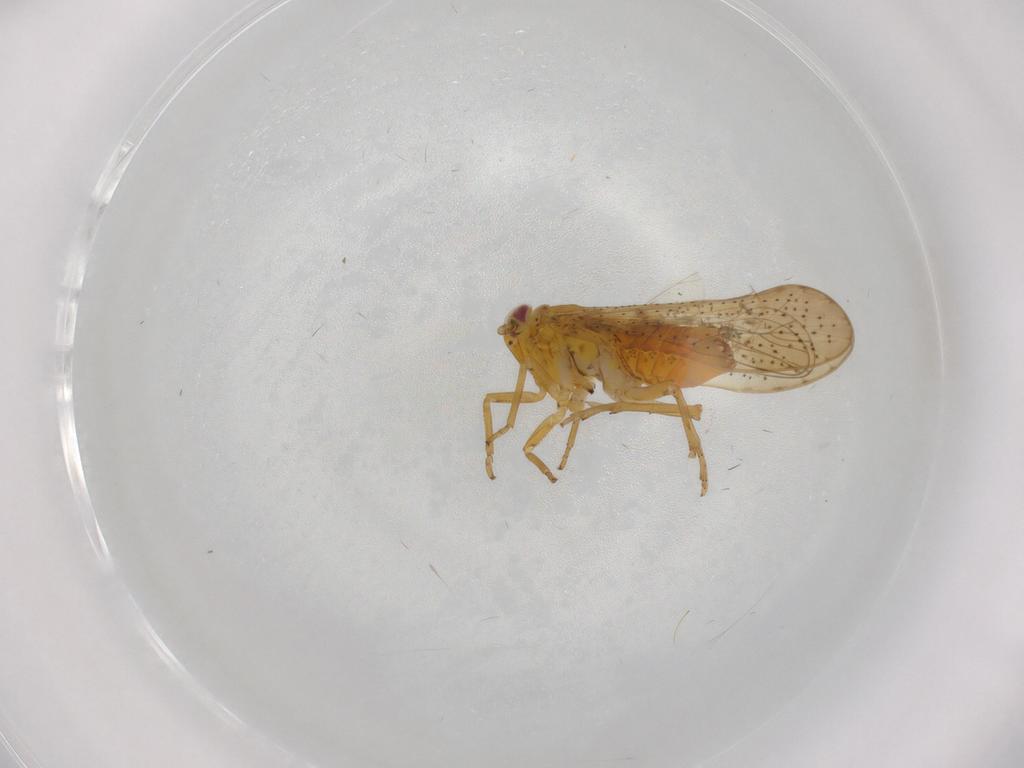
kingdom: Animalia
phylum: Arthropoda
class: Insecta
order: Hemiptera
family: Delphacidae
